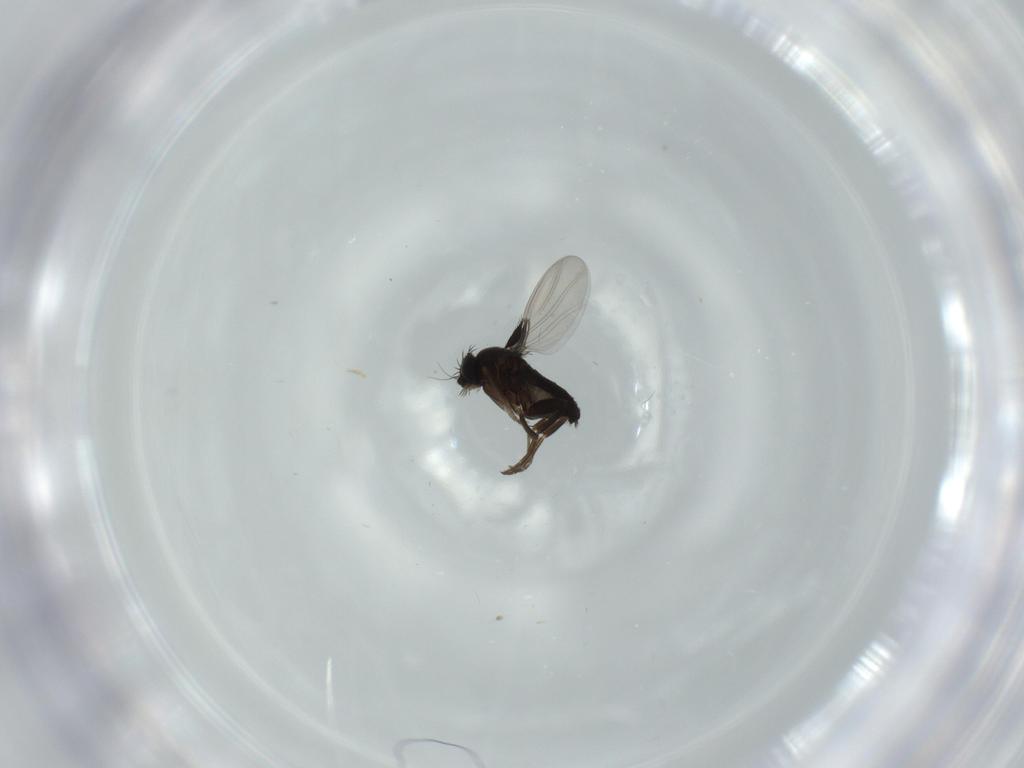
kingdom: Animalia
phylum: Arthropoda
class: Insecta
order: Diptera
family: Phoridae
